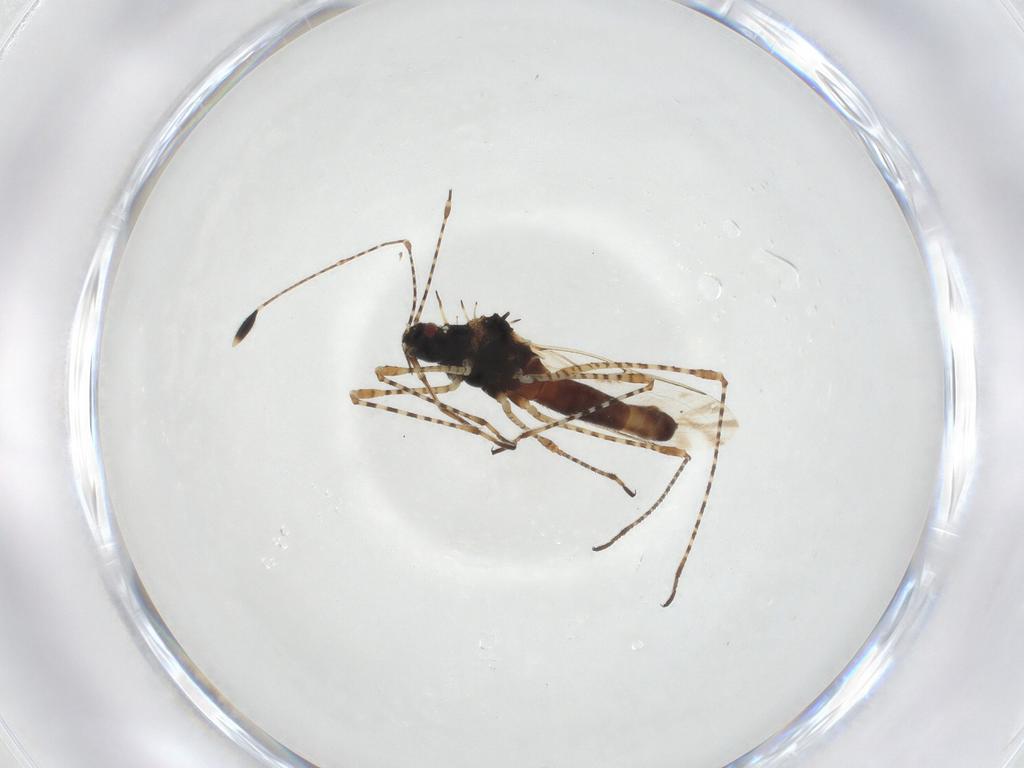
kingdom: Animalia
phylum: Arthropoda
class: Insecta
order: Hemiptera
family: Berytidae
